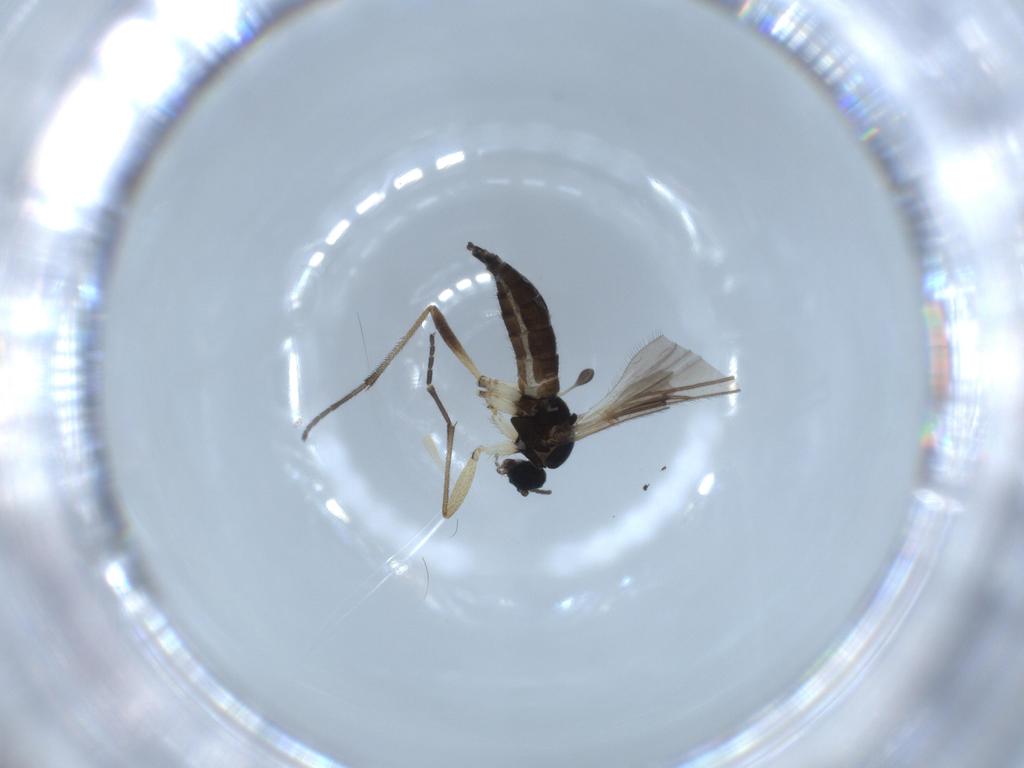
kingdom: Animalia
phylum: Arthropoda
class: Insecta
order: Diptera
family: Sciaridae
